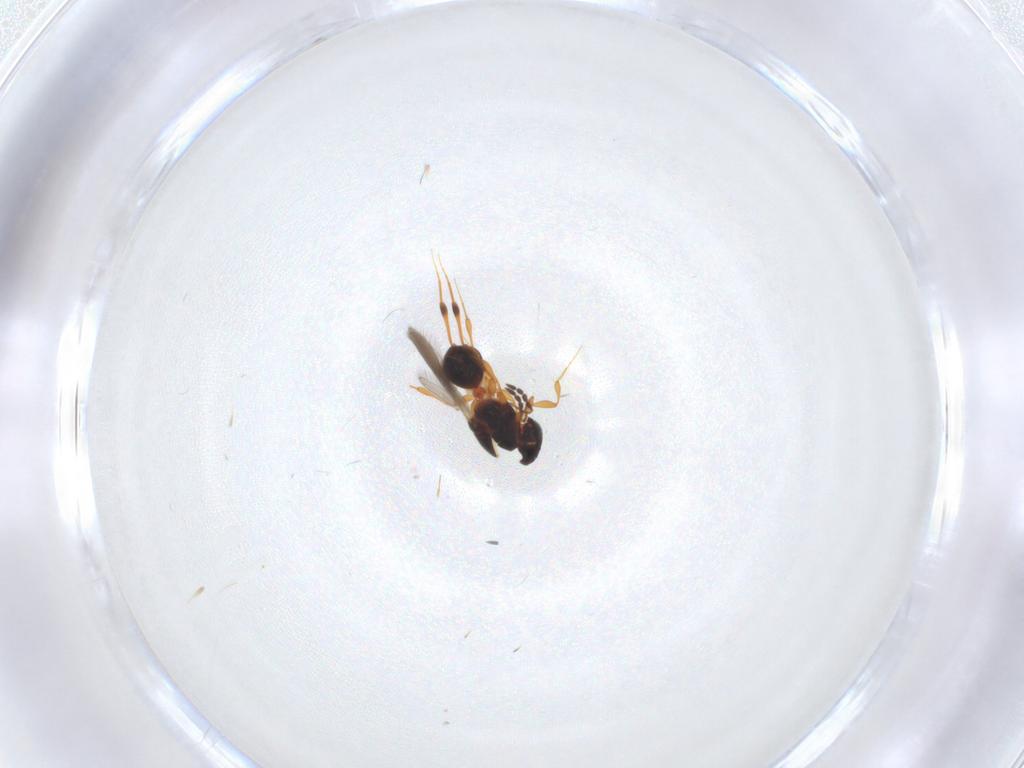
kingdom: Animalia
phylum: Arthropoda
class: Insecta
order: Hymenoptera
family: Platygastridae
